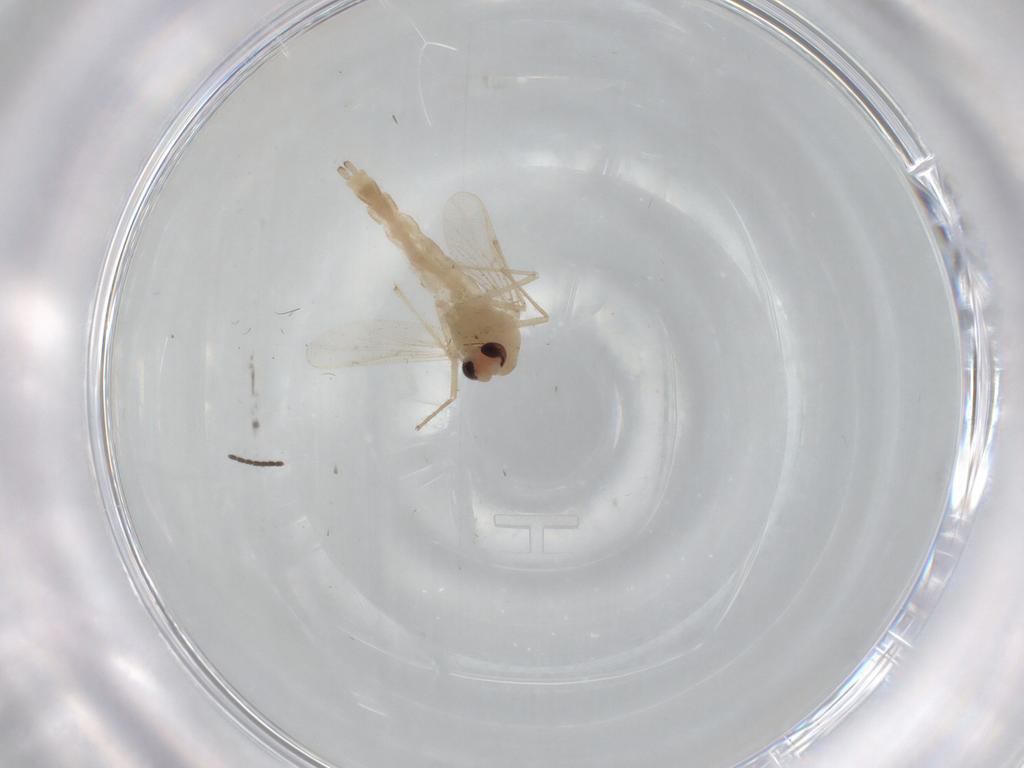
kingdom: Animalia
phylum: Arthropoda
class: Insecta
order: Diptera
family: Chironomidae
